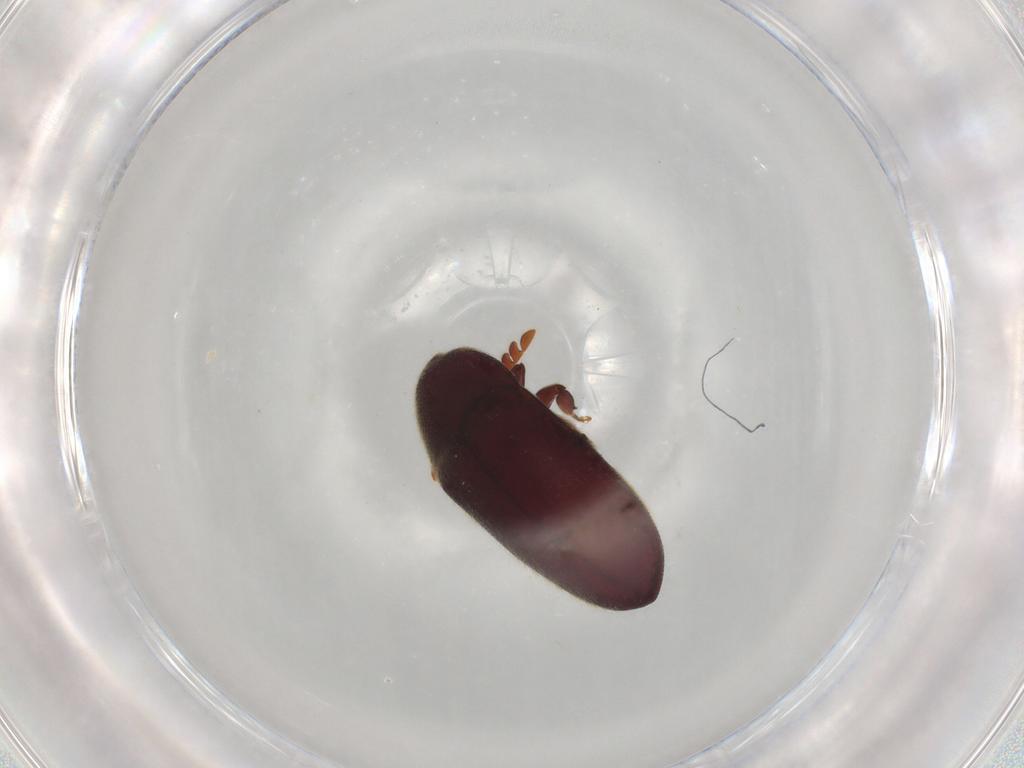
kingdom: Animalia
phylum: Arthropoda
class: Insecta
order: Coleoptera
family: Throscidae
